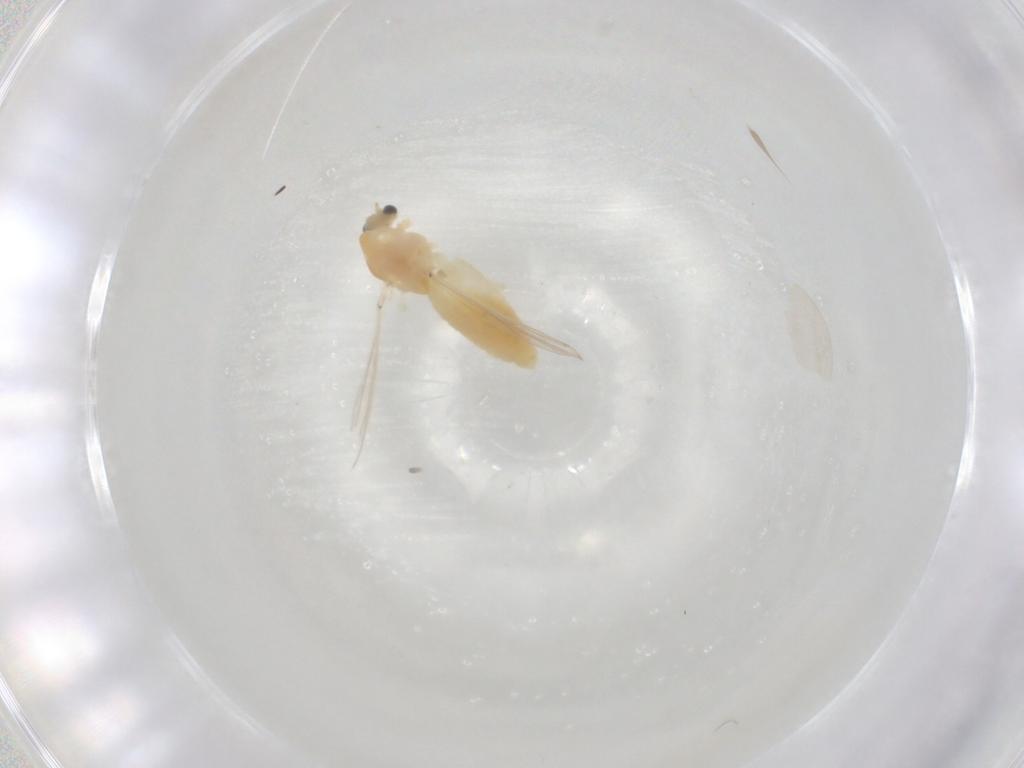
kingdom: Animalia
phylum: Arthropoda
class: Insecta
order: Diptera
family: Chironomidae
